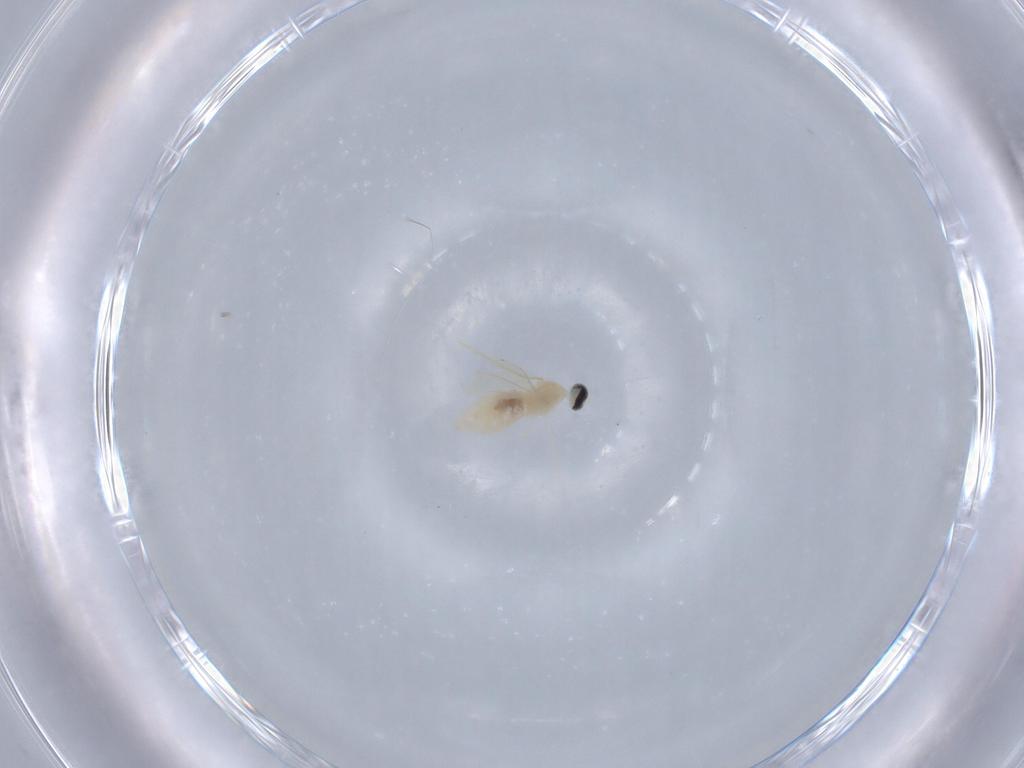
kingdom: Animalia
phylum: Arthropoda
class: Insecta
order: Diptera
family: Cecidomyiidae
